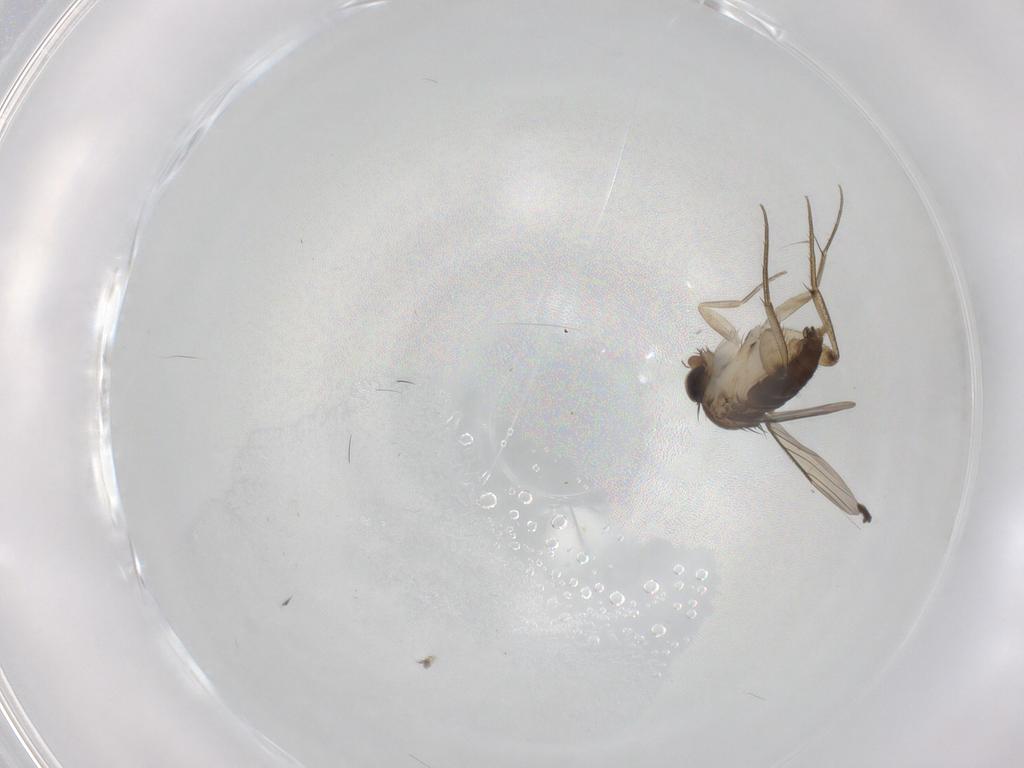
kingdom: Animalia
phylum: Arthropoda
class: Insecta
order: Diptera
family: Phoridae
